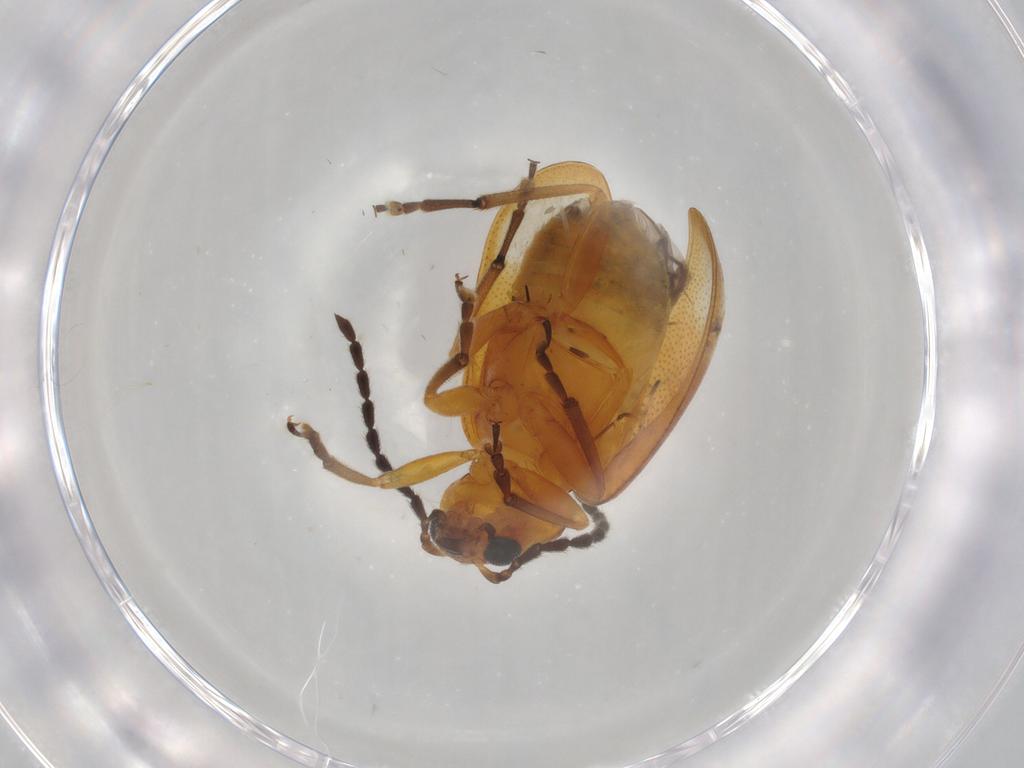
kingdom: Animalia
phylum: Arthropoda
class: Insecta
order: Coleoptera
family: Chrysomelidae
